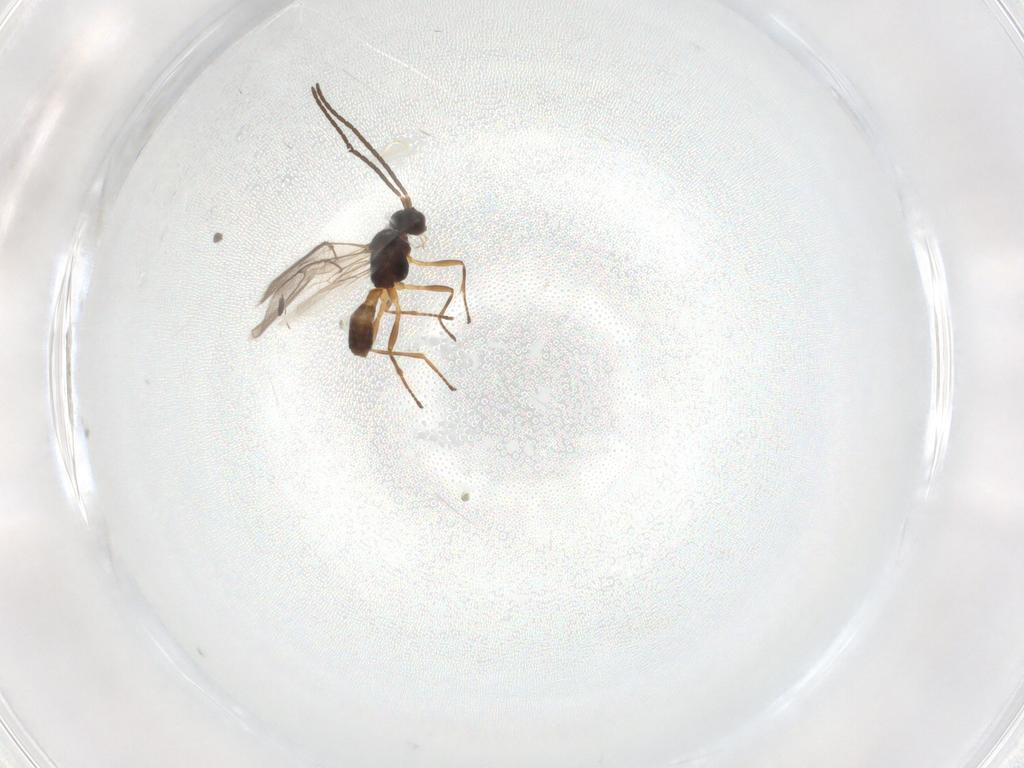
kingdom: Animalia
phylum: Arthropoda
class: Insecta
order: Hymenoptera
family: Braconidae
